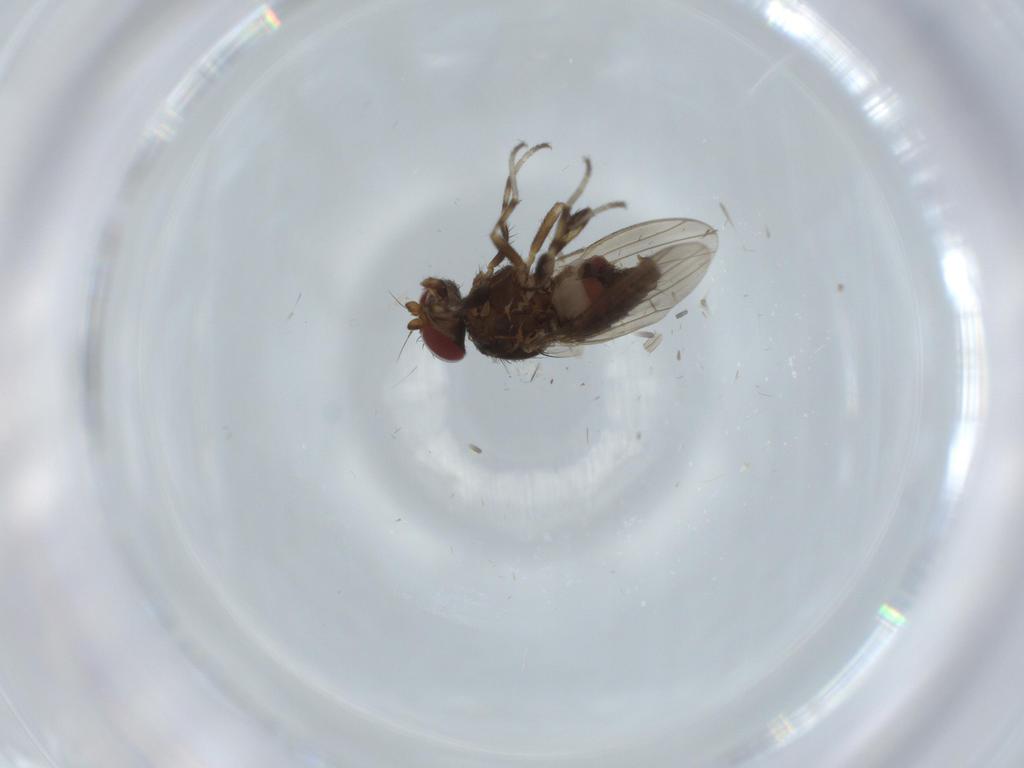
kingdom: Animalia
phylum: Arthropoda
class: Insecta
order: Diptera
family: Heleomyzidae
